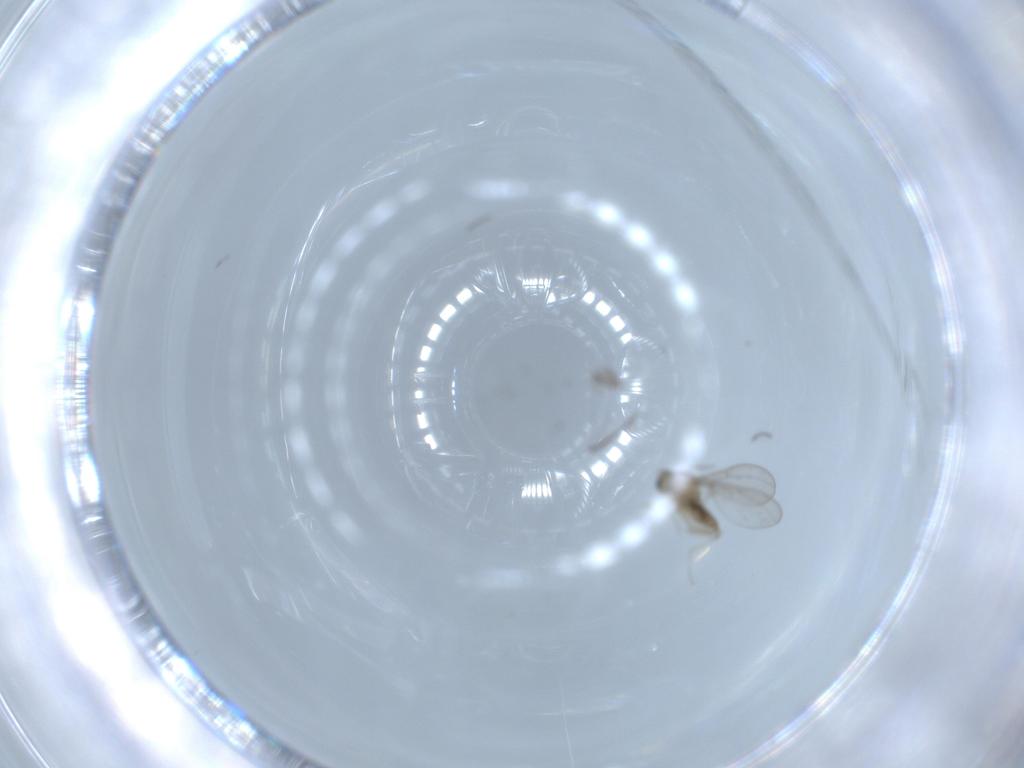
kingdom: Animalia
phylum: Arthropoda
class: Insecta
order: Diptera
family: Cecidomyiidae
